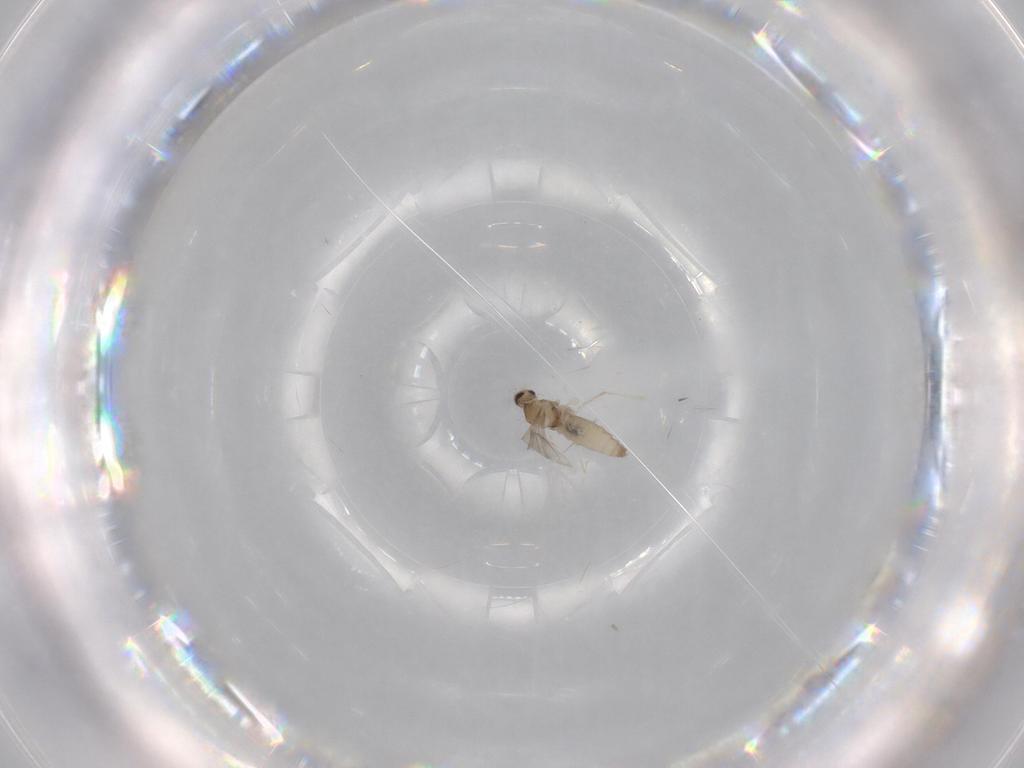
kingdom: Animalia
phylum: Arthropoda
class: Insecta
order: Diptera
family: Cecidomyiidae
